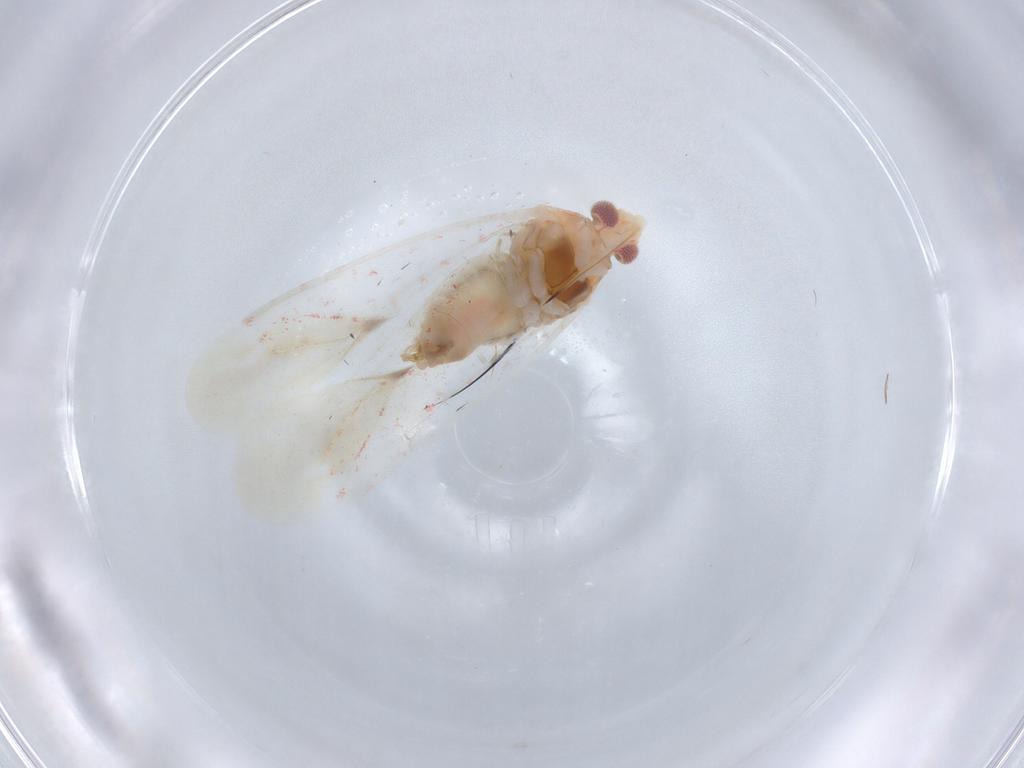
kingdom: Animalia
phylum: Arthropoda
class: Insecta
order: Hemiptera
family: Miridae
